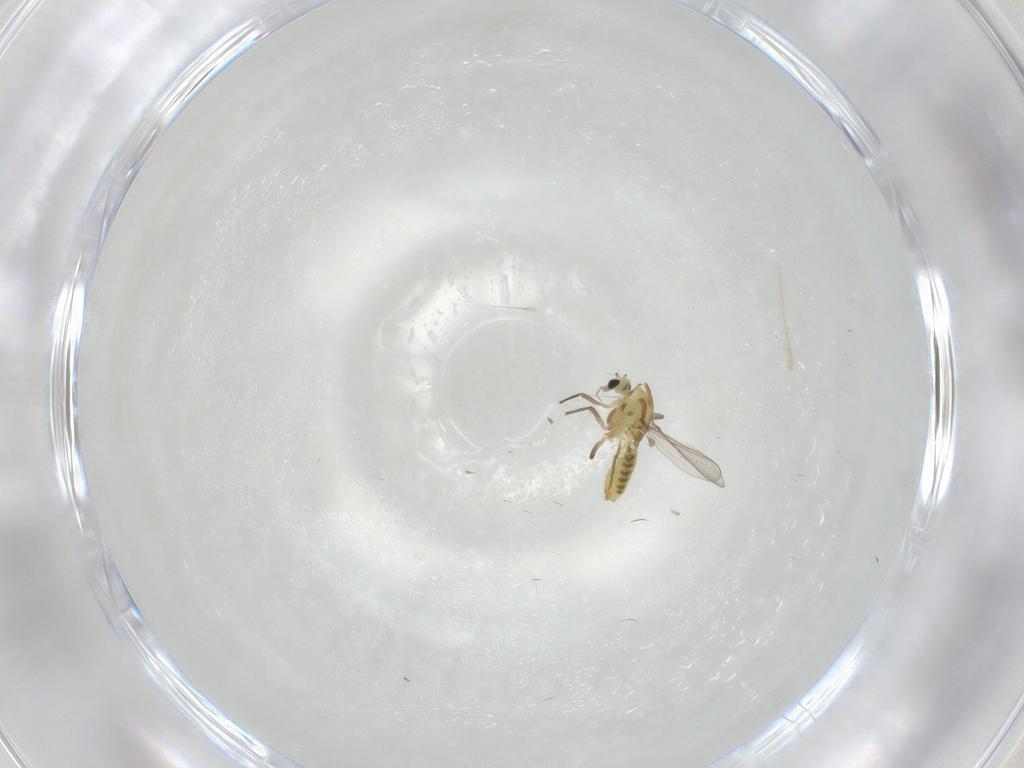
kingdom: Animalia
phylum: Arthropoda
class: Insecta
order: Diptera
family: Chironomidae
